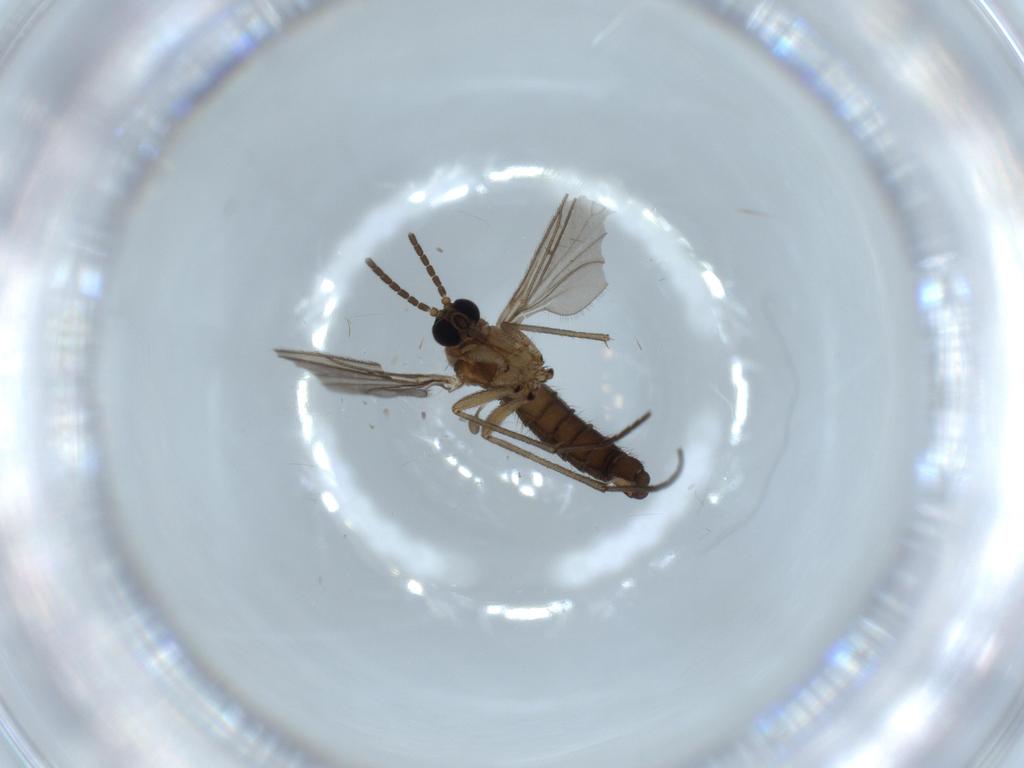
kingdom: Animalia
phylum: Arthropoda
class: Insecta
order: Diptera
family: Sciaridae
